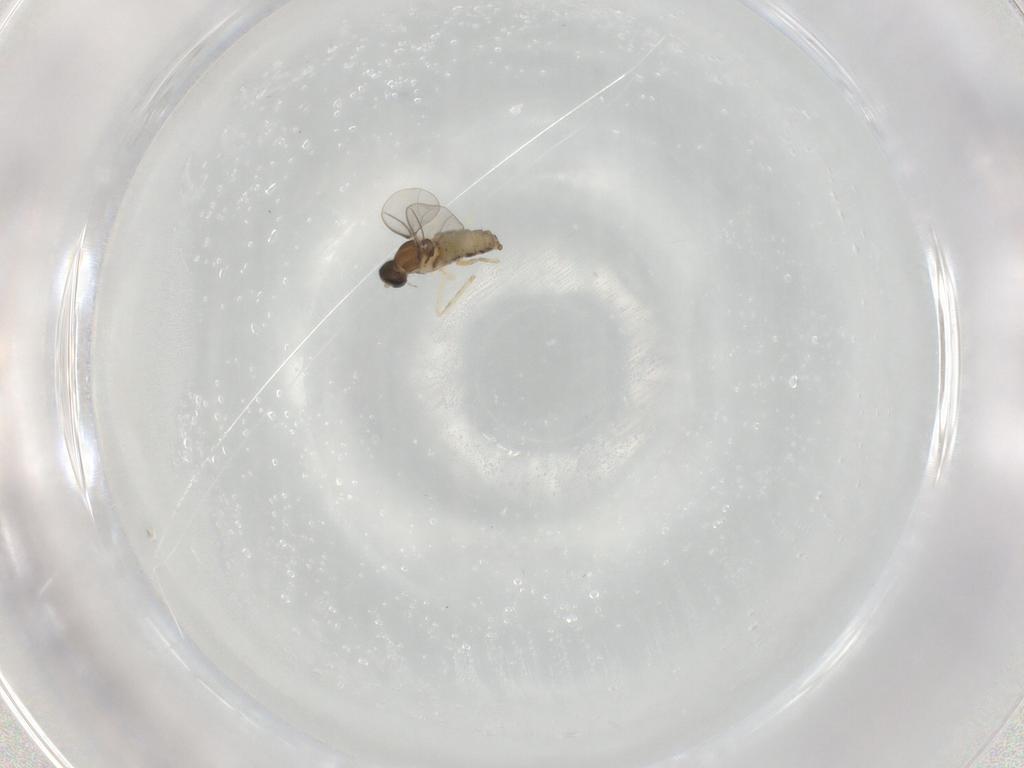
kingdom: Animalia
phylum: Arthropoda
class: Insecta
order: Diptera
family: Cecidomyiidae
